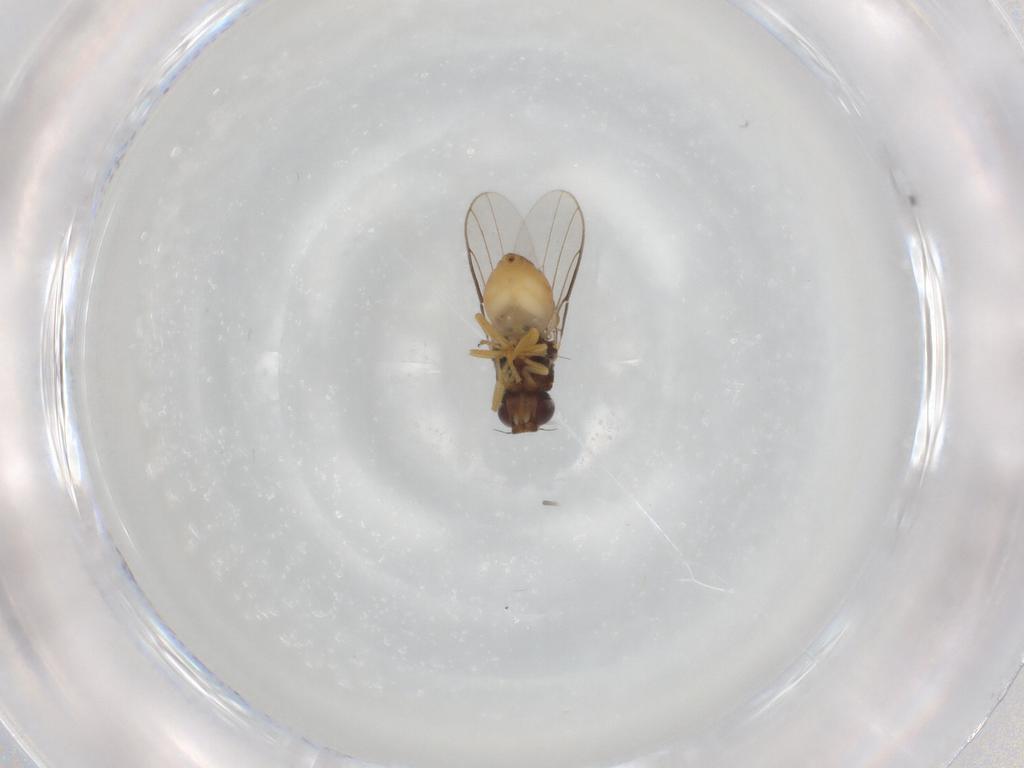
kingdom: Animalia
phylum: Arthropoda
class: Insecta
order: Diptera
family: Chloropidae
